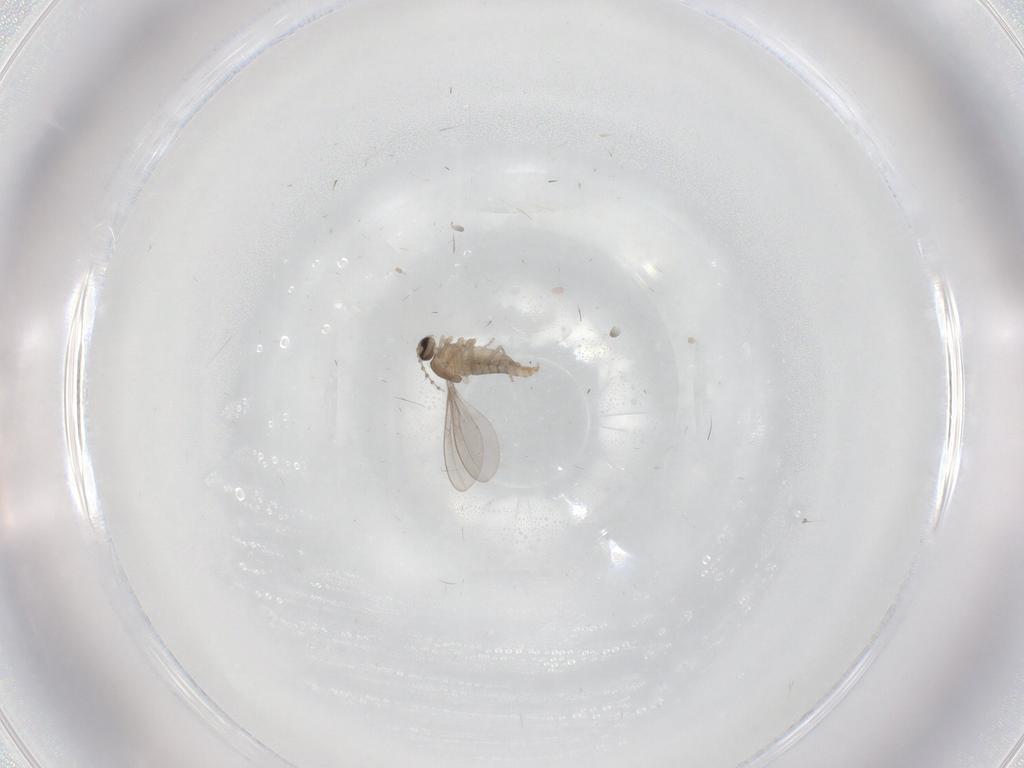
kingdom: Animalia
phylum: Arthropoda
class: Insecta
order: Diptera
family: Cecidomyiidae
